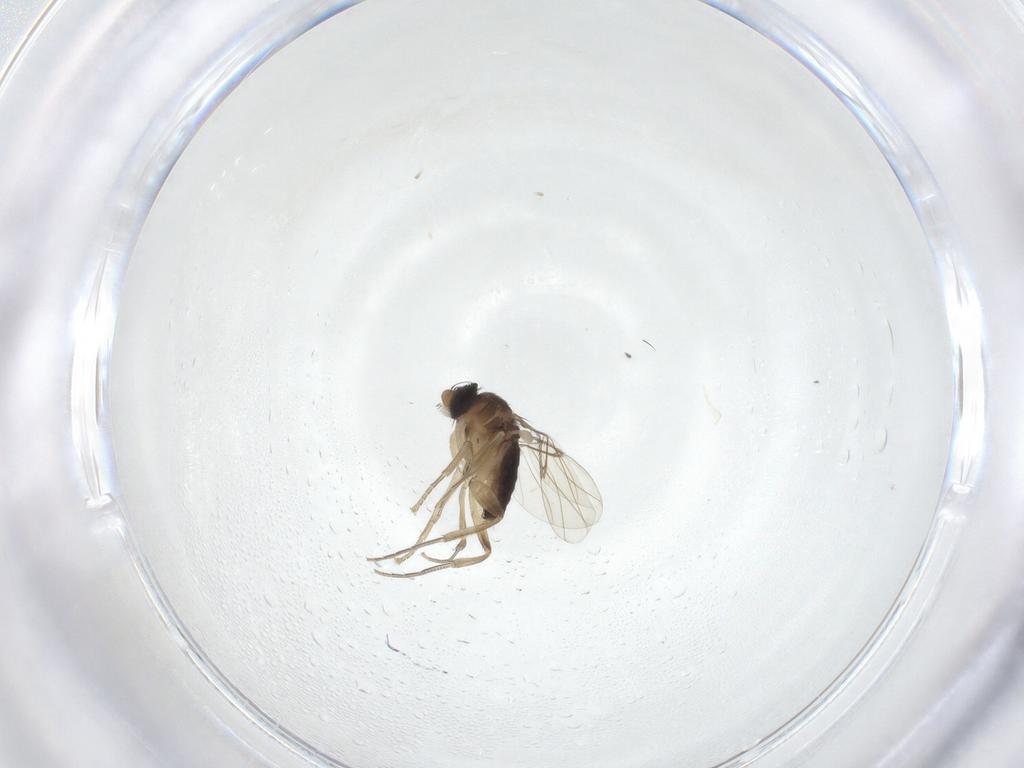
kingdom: Animalia
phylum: Arthropoda
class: Insecta
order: Diptera
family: Phoridae
